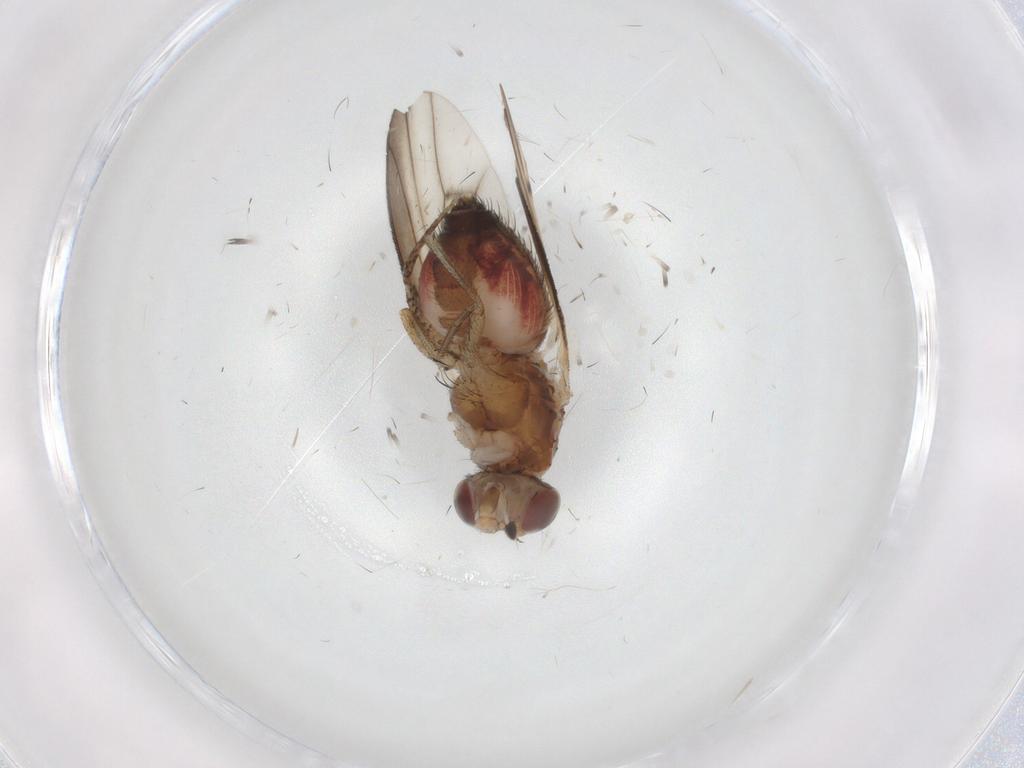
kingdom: Animalia
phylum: Arthropoda
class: Insecta
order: Diptera
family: Heleomyzidae
